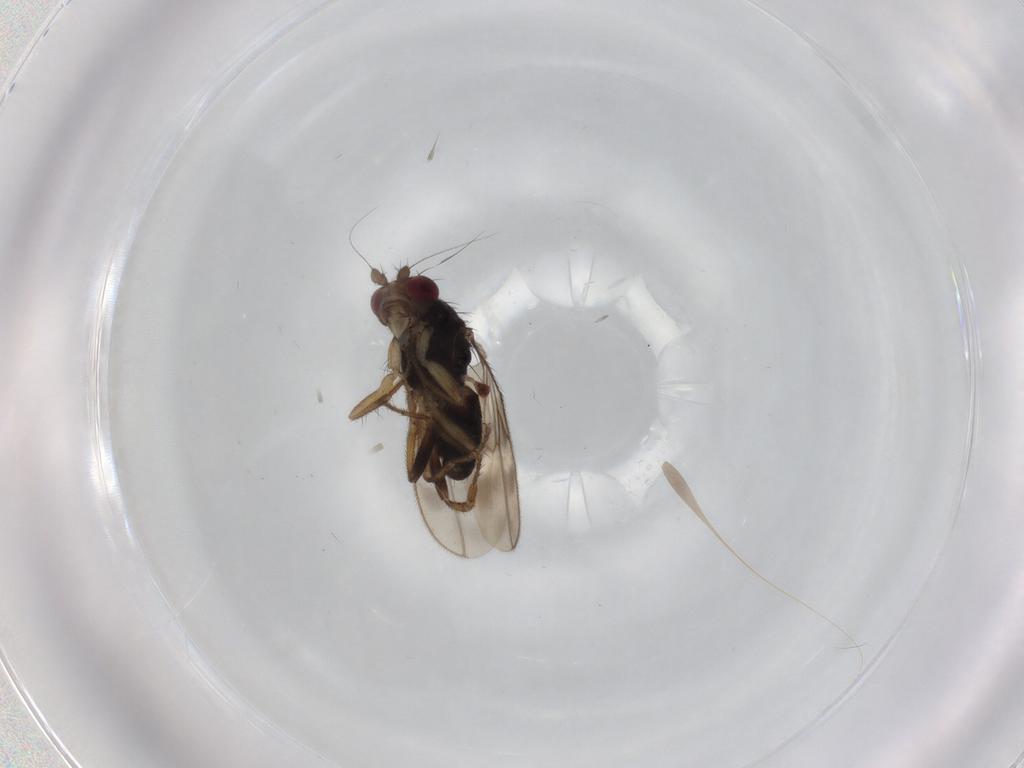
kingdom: Animalia
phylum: Arthropoda
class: Insecta
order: Diptera
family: Sphaeroceridae
